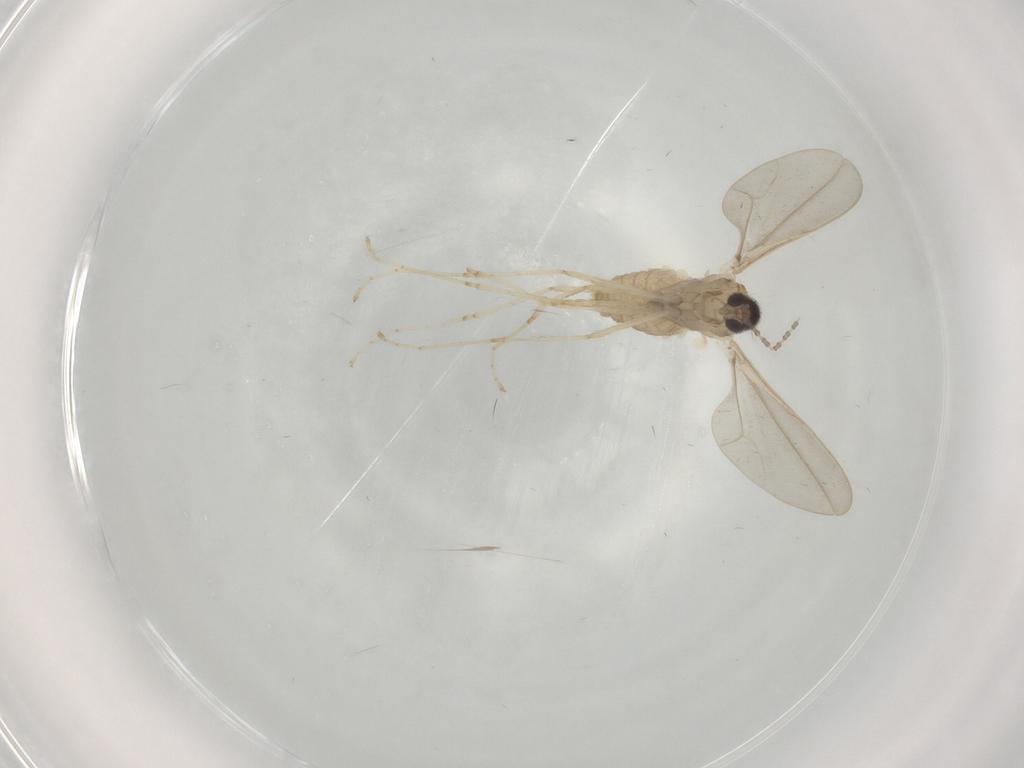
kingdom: Animalia
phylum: Arthropoda
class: Insecta
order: Diptera
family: Cecidomyiidae
